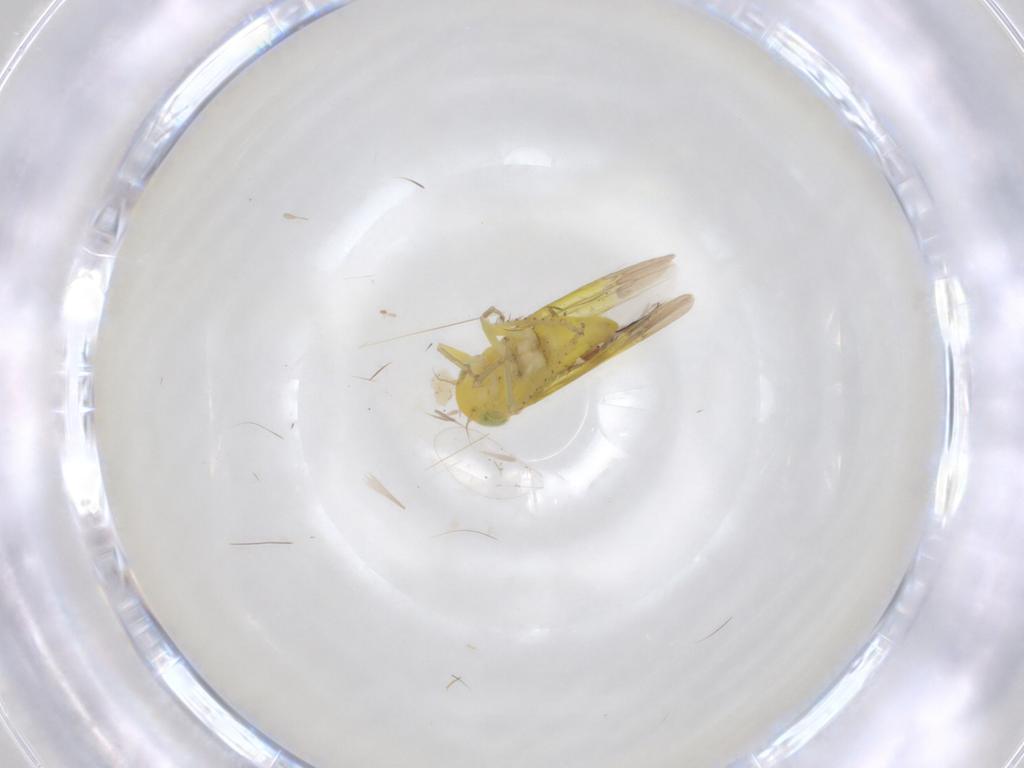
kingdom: Animalia
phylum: Arthropoda
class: Insecta
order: Hemiptera
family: Cicadellidae
